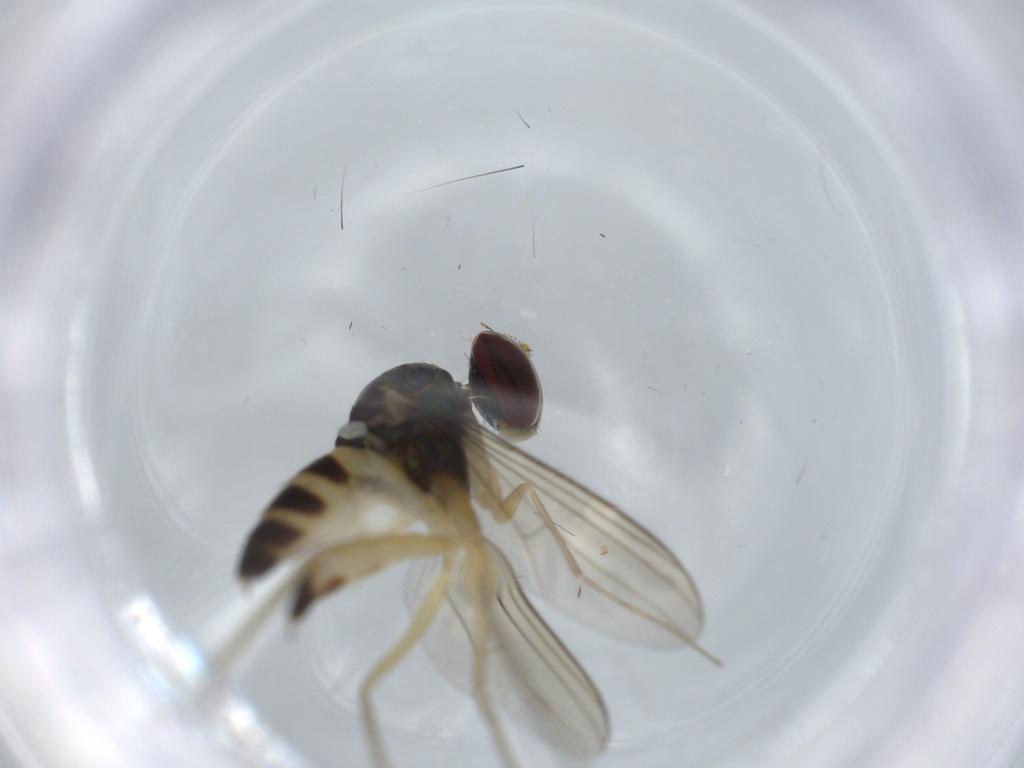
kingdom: Animalia
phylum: Arthropoda
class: Insecta
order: Diptera
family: Dolichopodidae
